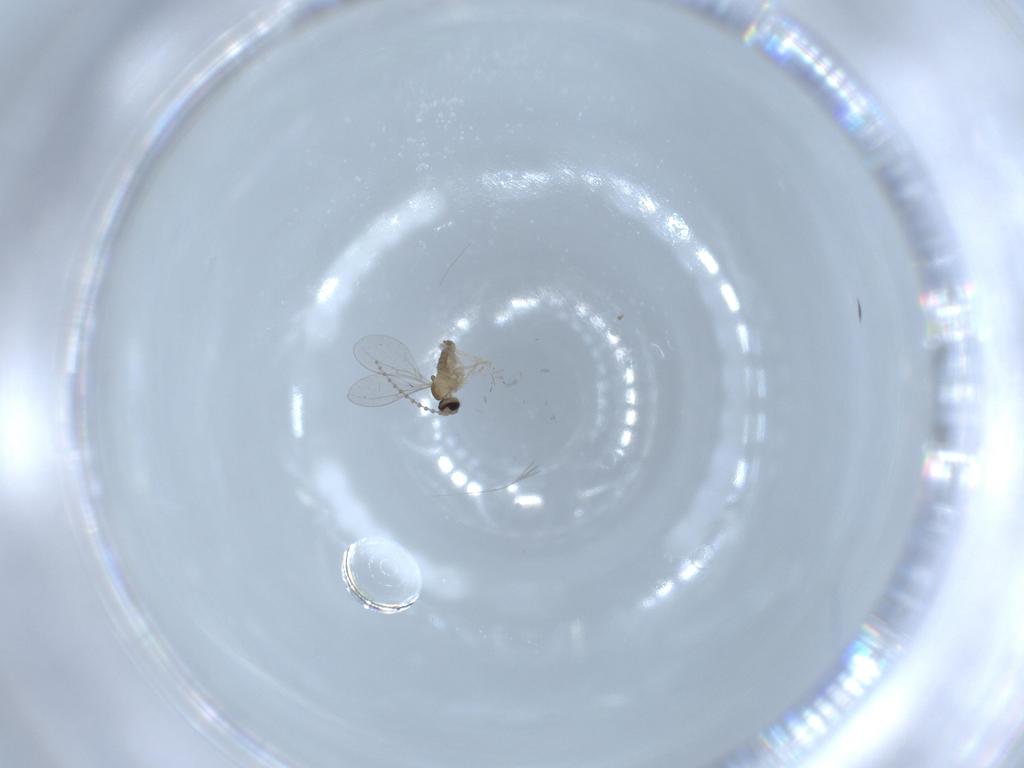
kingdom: Animalia
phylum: Arthropoda
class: Insecta
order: Diptera
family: Cecidomyiidae
